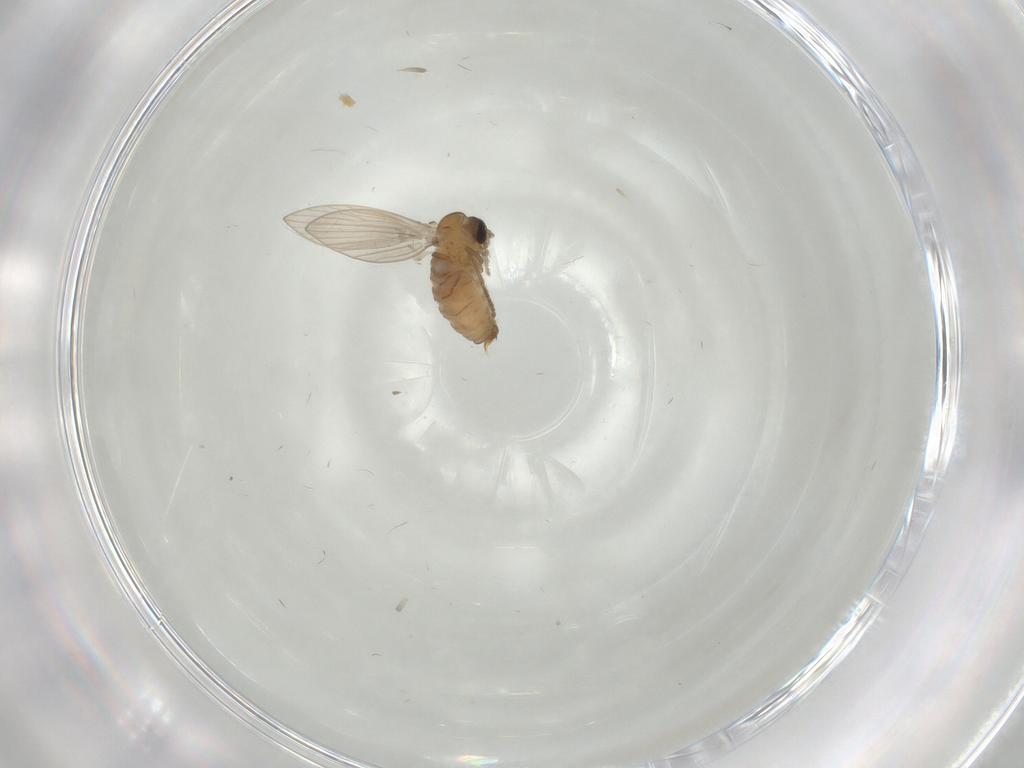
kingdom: Animalia
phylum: Arthropoda
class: Insecta
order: Diptera
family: Psychodidae
